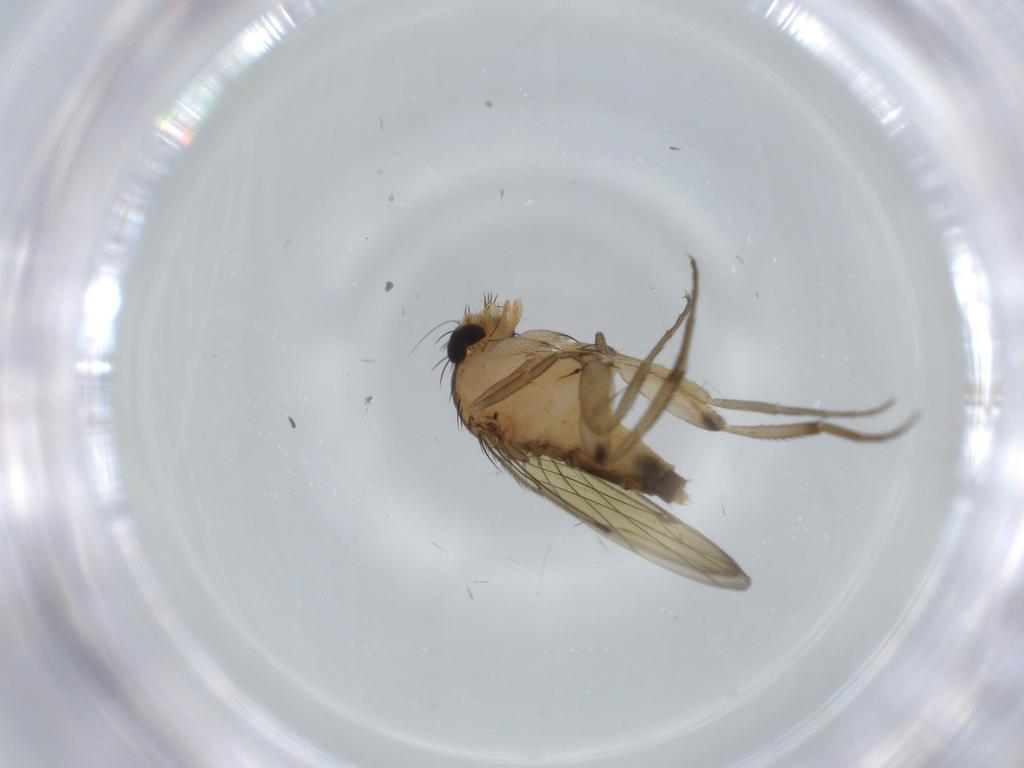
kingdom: Animalia
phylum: Arthropoda
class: Insecta
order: Diptera
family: Phoridae
